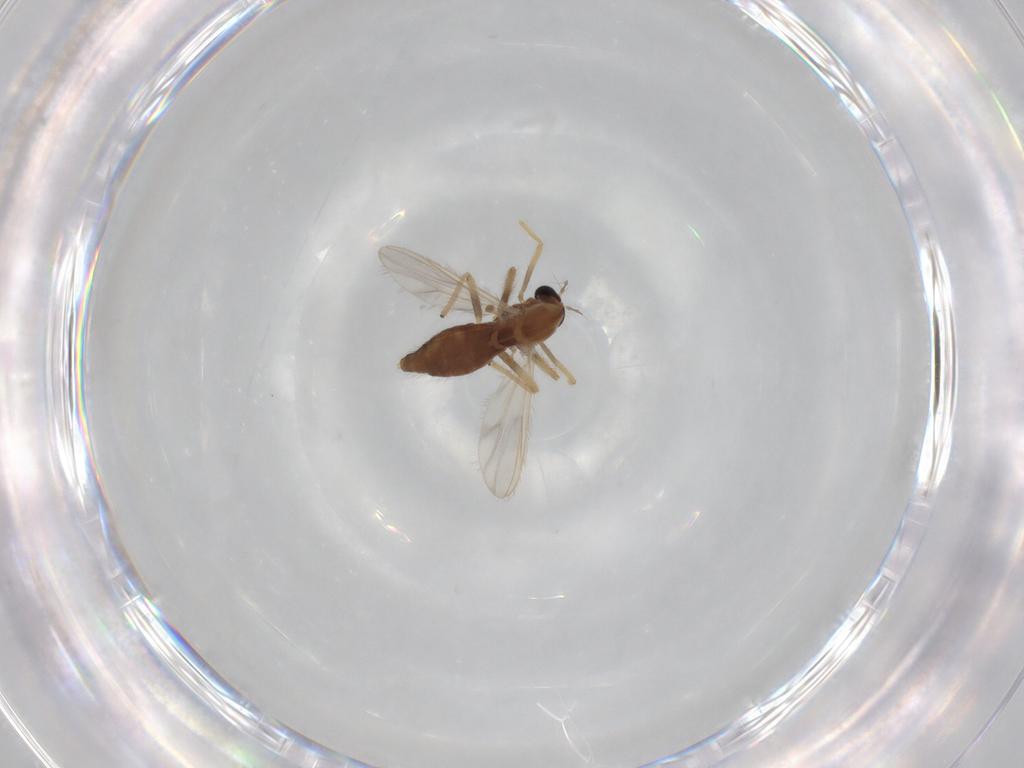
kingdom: Animalia
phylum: Arthropoda
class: Insecta
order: Diptera
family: Chironomidae
